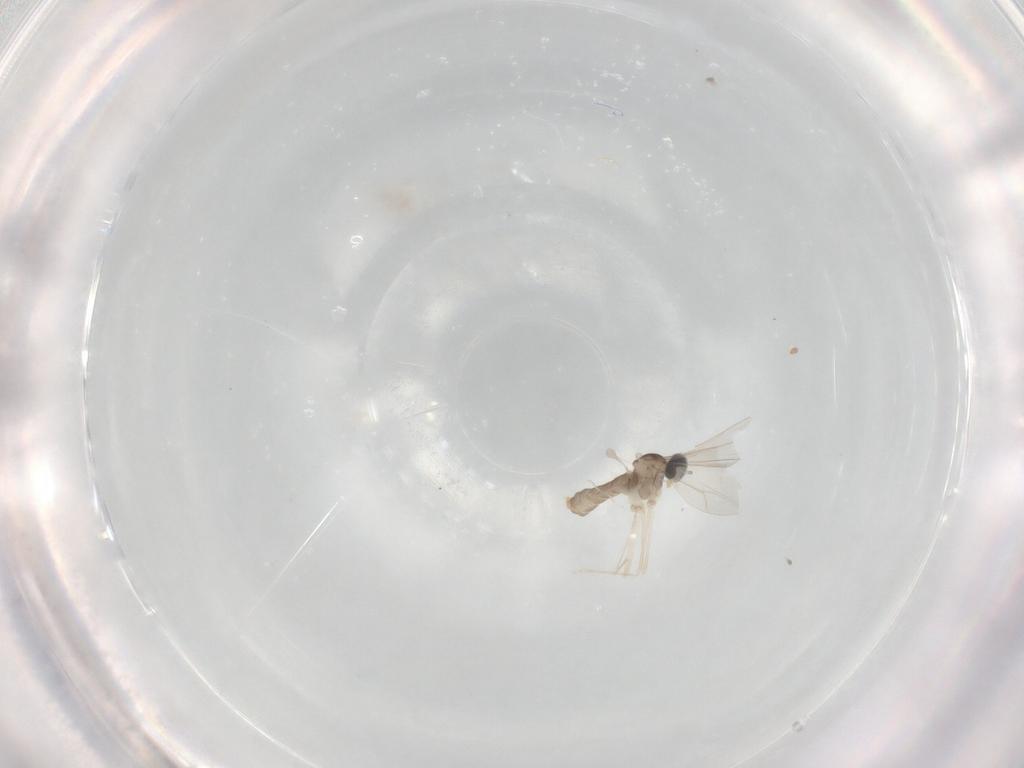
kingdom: Animalia
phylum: Arthropoda
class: Insecta
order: Diptera
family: Cecidomyiidae
